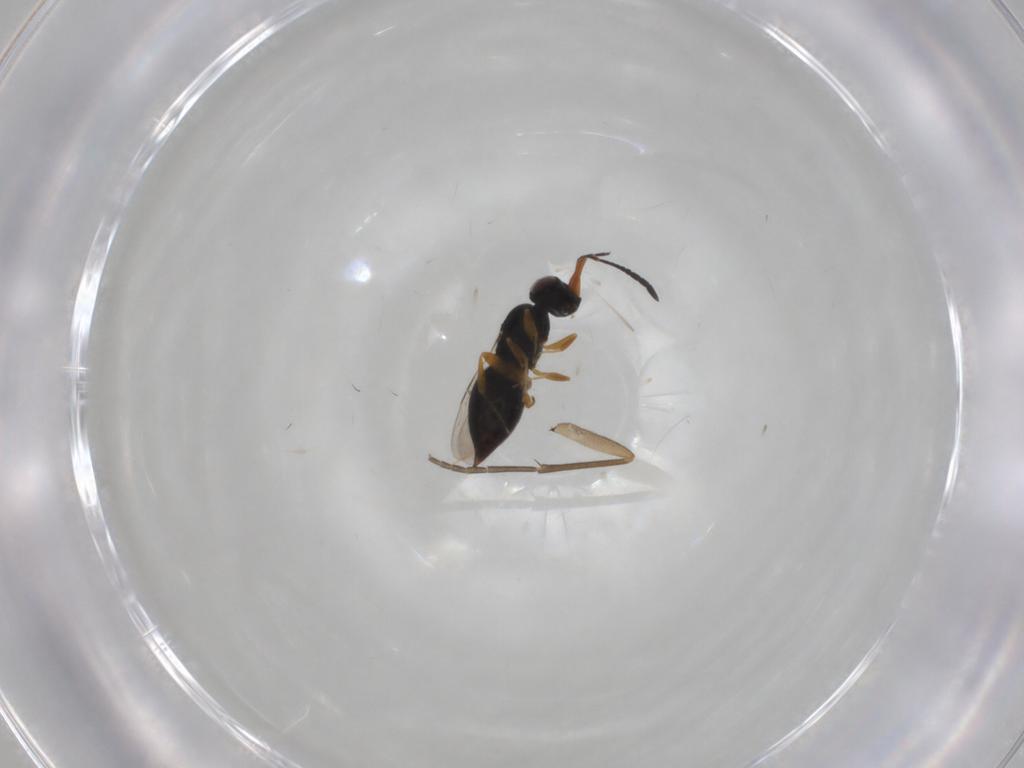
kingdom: Animalia
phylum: Arthropoda
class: Insecta
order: Hymenoptera
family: Ceraphronidae
